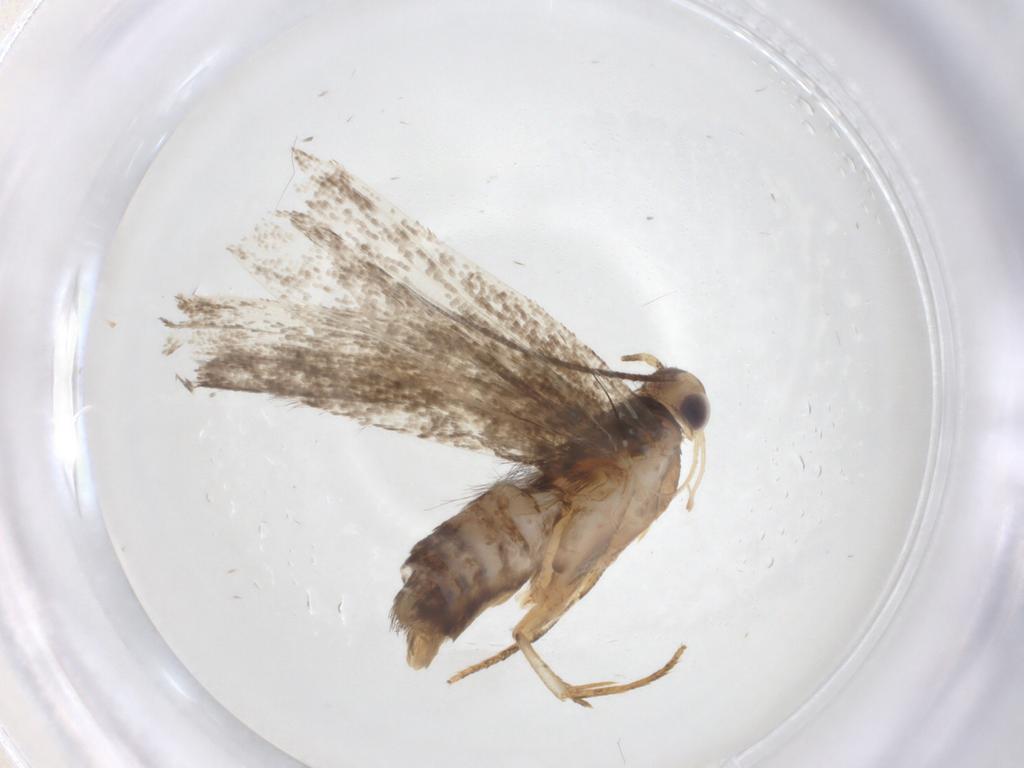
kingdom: Animalia
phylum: Arthropoda
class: Insecta
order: Lepidoptera
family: Gelechiidae
